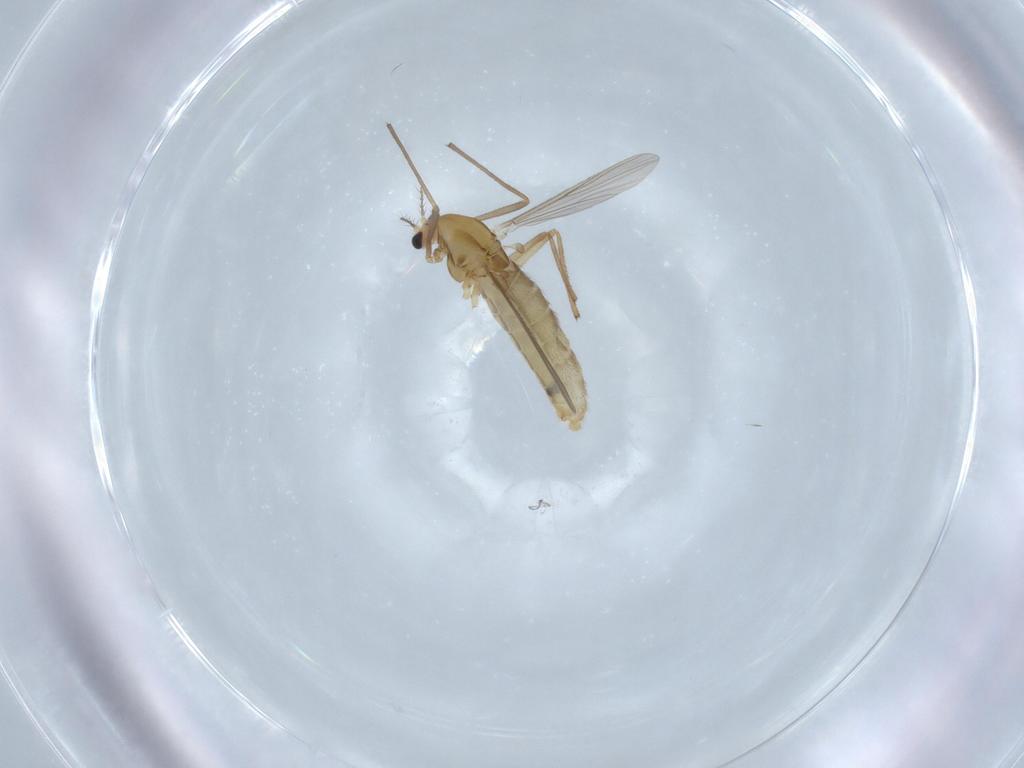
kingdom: Animalia
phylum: Arthropoda
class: Insecta
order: Diptera
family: Chironomidae
